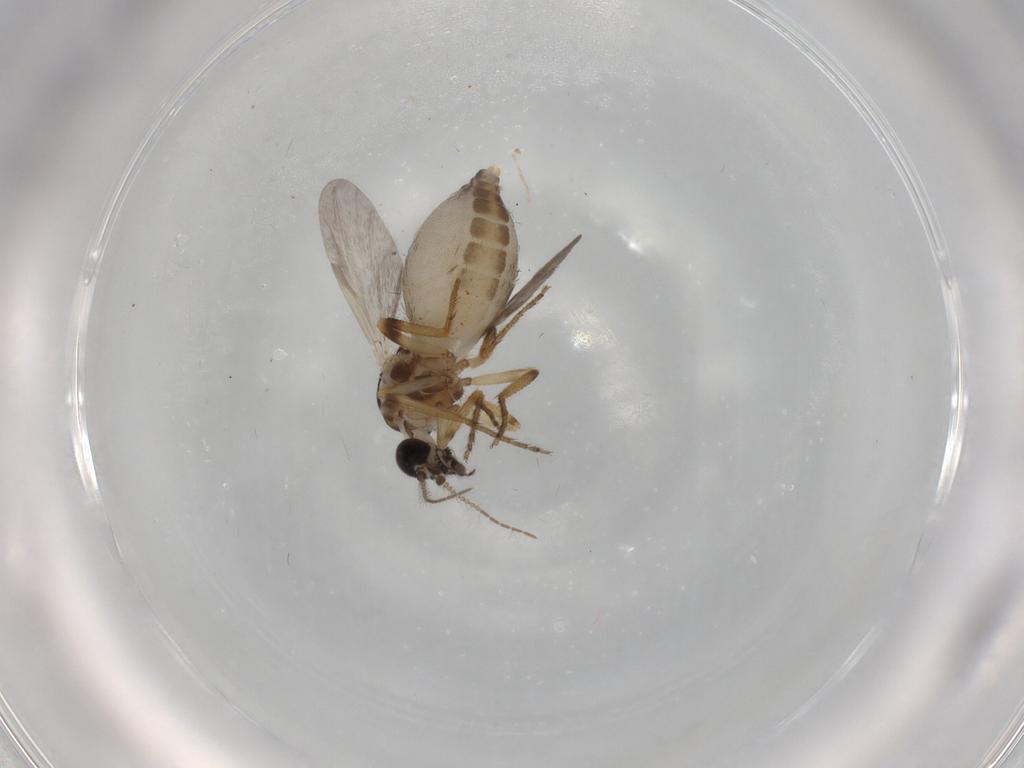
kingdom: Animalia
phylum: Arthropoda
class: Insecta
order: Diptera
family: Ceratopogonidae
